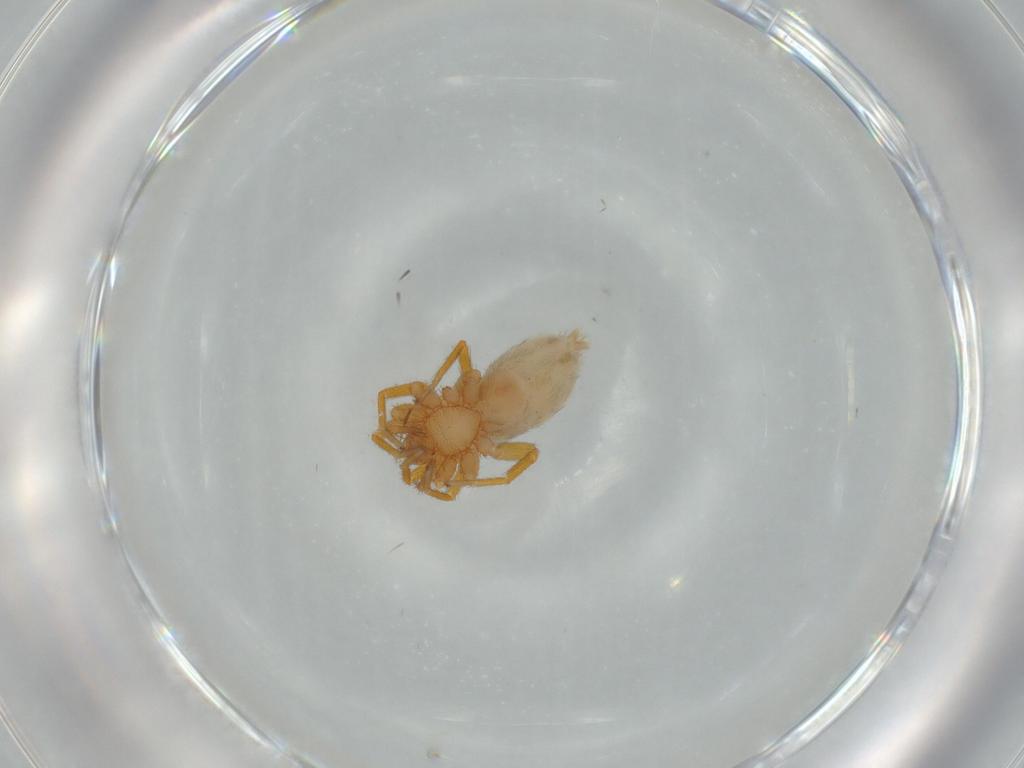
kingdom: Animalia
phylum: Arthropoda
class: Arachnida
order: Araneae
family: Oonopidae
